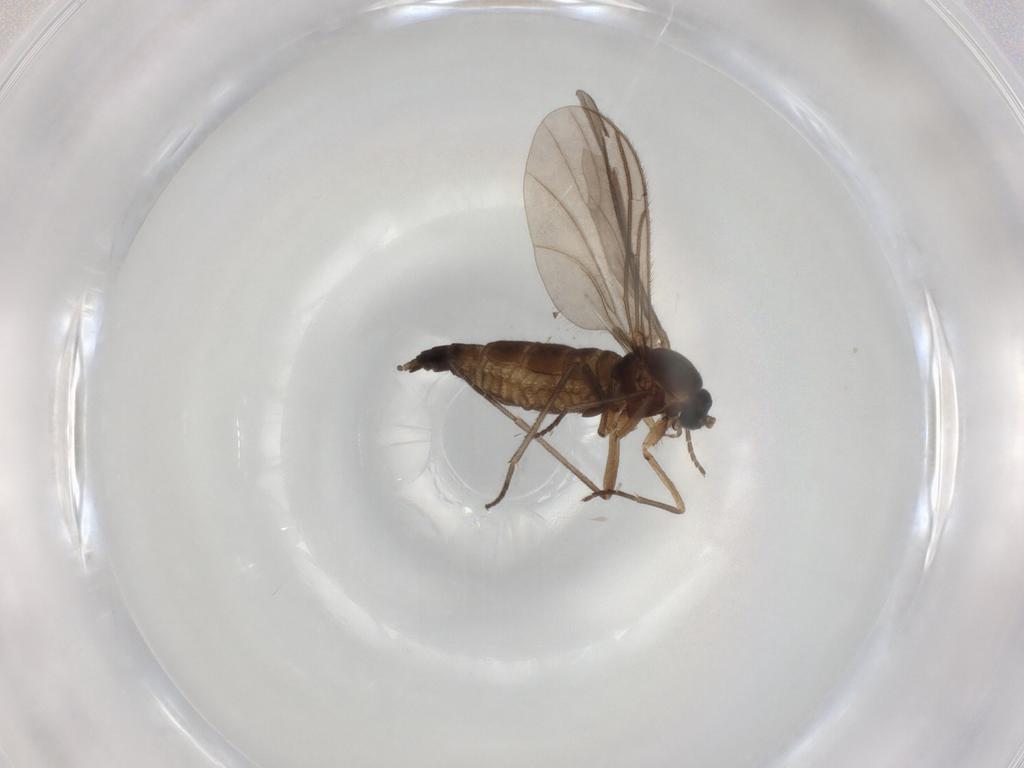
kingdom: Animalia
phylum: Arthropoda
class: Insecta
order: Diptera
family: Sciaridae
